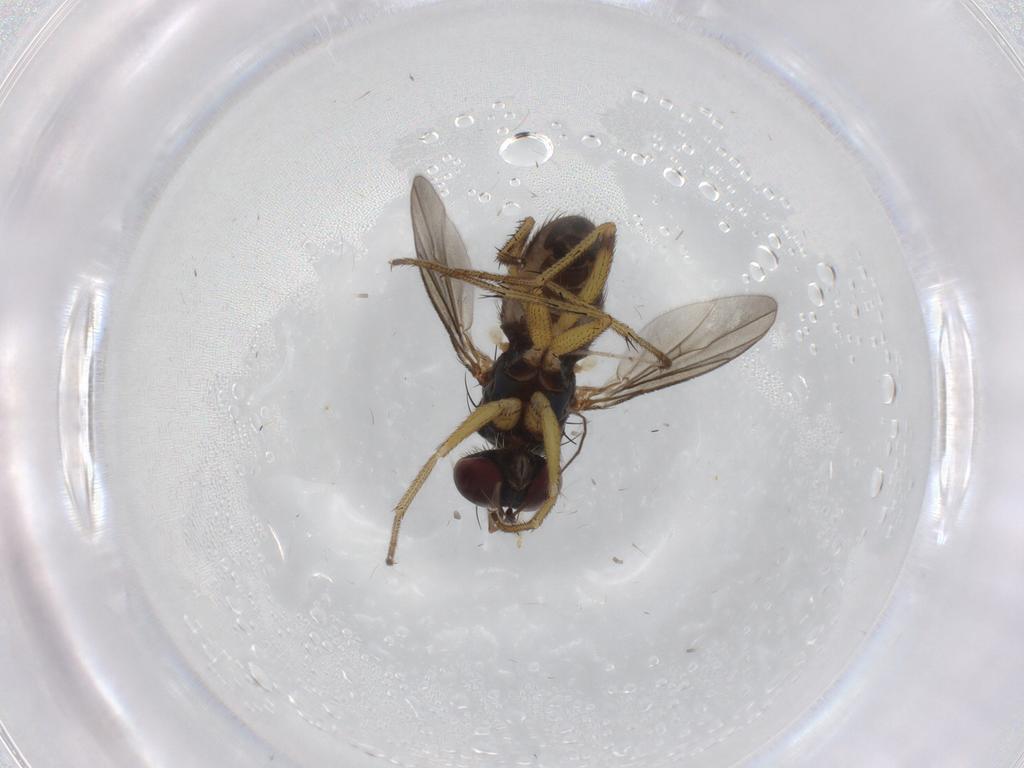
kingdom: Animalia
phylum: Arthropoda
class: Insecta
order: Diptera
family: Dolichopodidae
